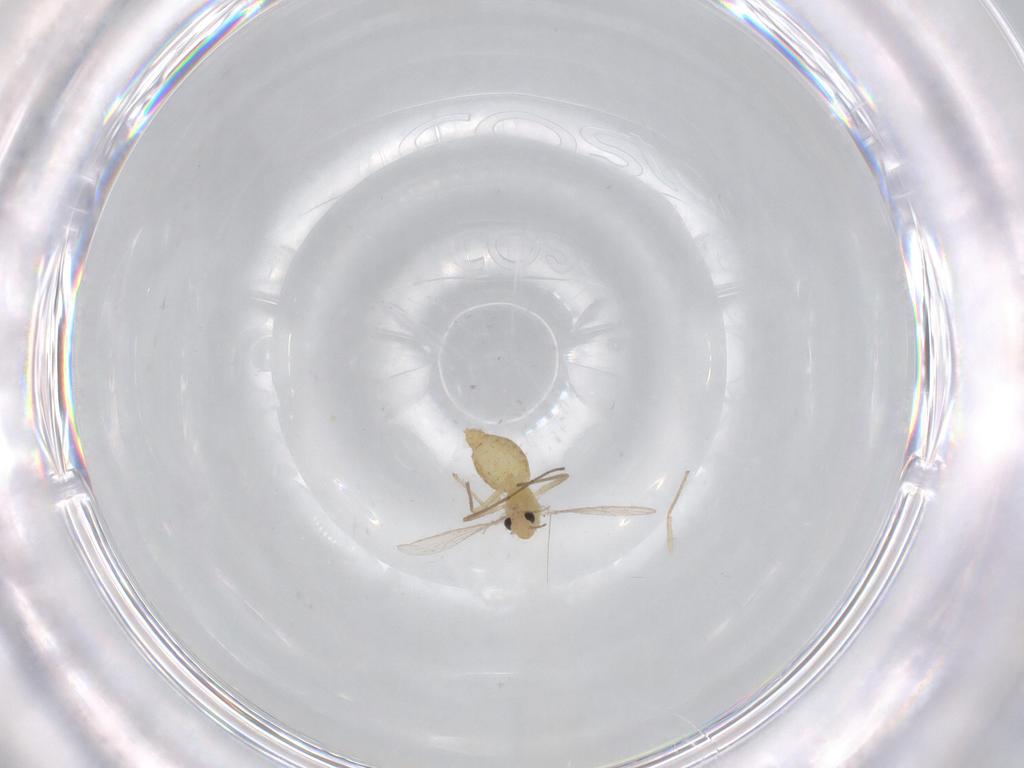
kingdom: Animalia
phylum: Arthropoda
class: Insecta
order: Diptera
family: Chironomidae
